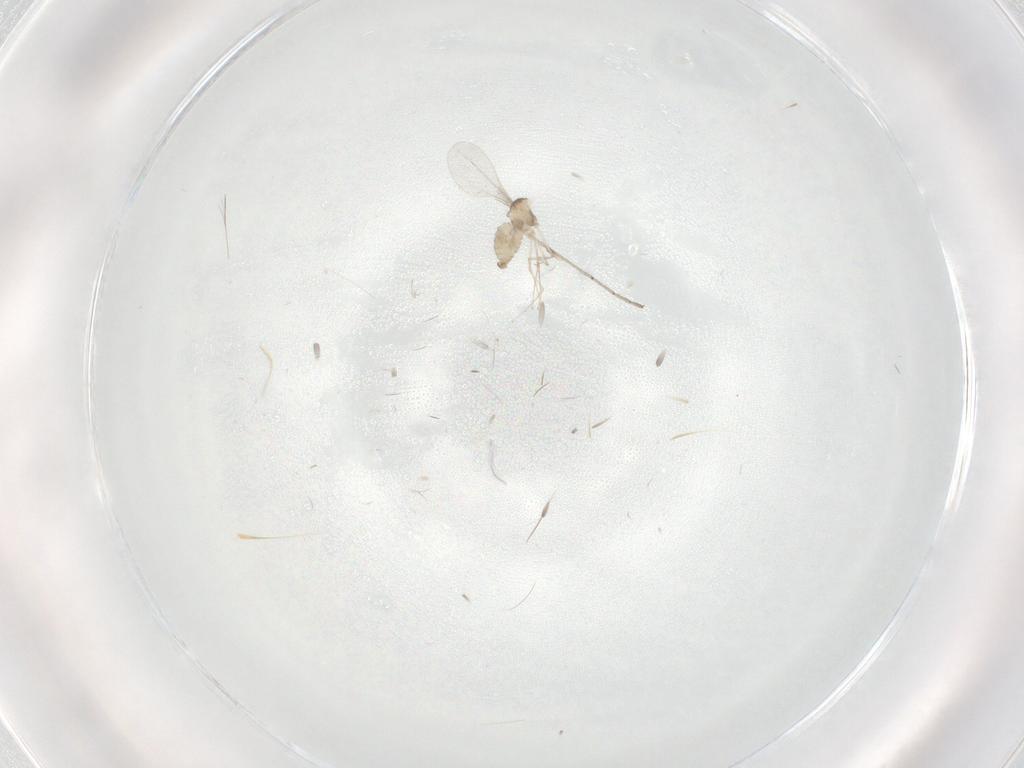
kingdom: Animalia
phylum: Arthropoda
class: Insecta
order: Diptera
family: Cecidomyiidae
